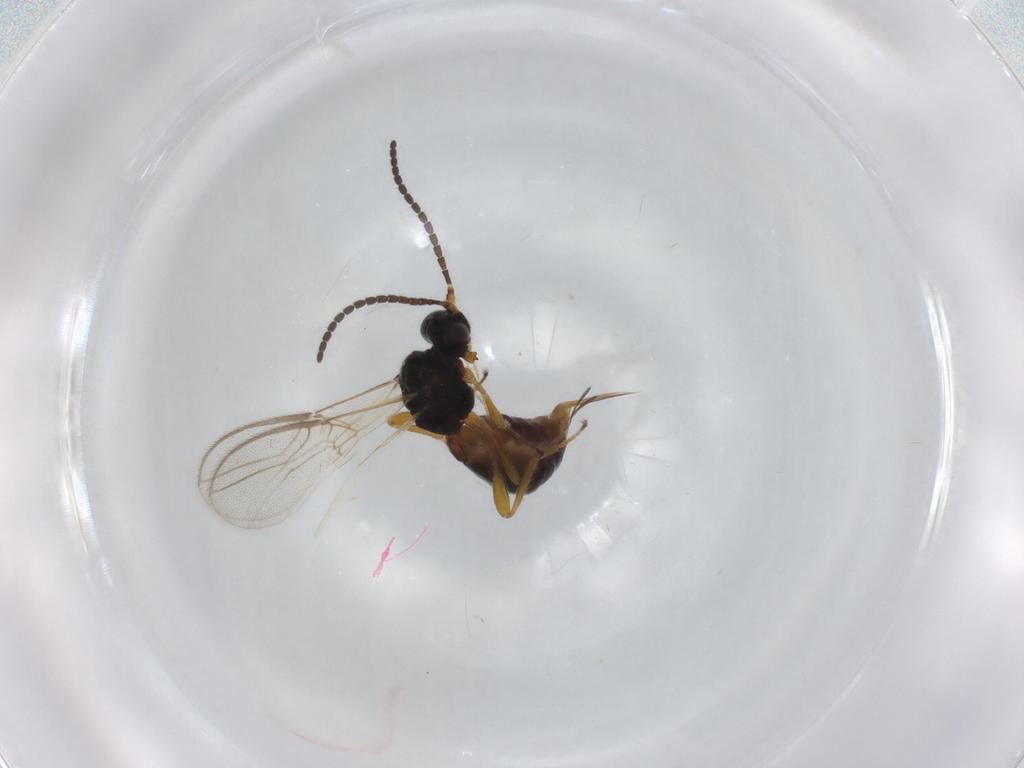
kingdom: Animalia
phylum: Arthropoda
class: Insecta
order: Hymenoptera
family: Braconidae
